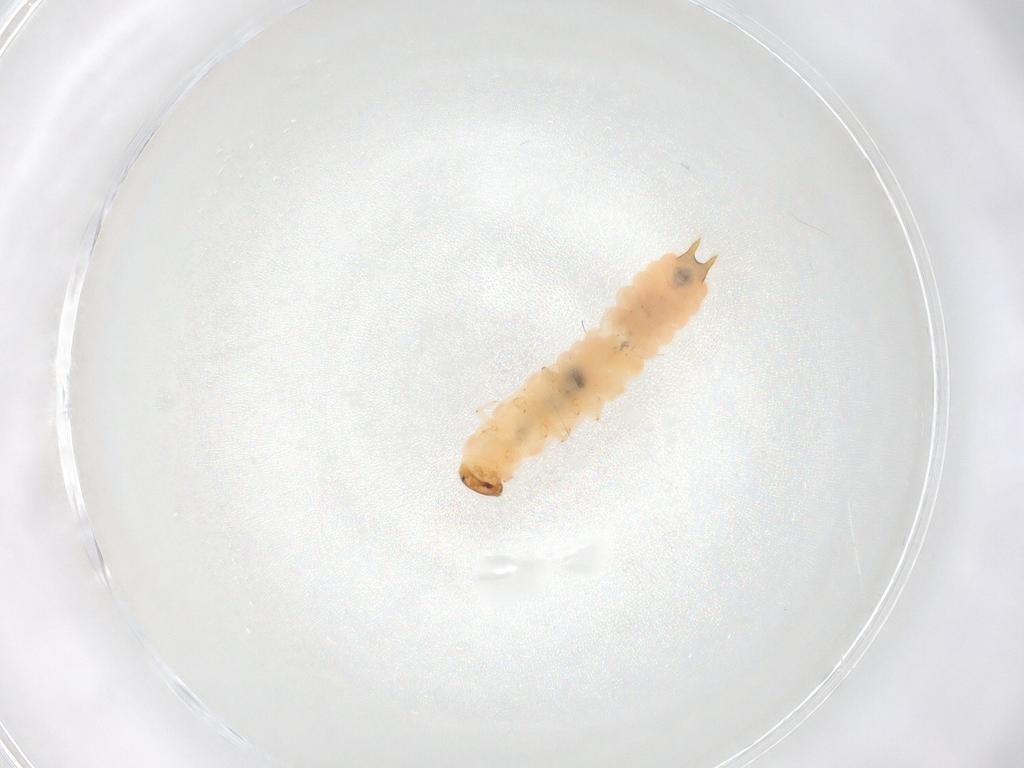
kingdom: Animalia
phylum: Arthropoda
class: Insecta
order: Coleoptera
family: Melyridae
